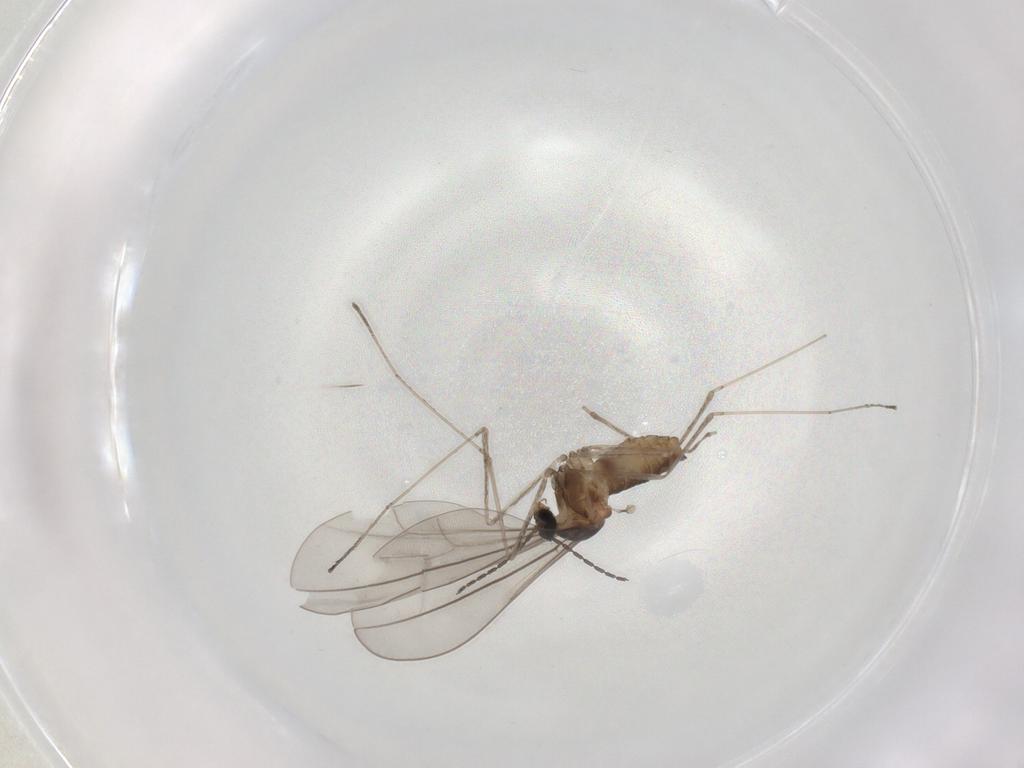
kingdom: Animalia
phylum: Arthropoda
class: Insecta
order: Diptera
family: Cecidomyiidae
